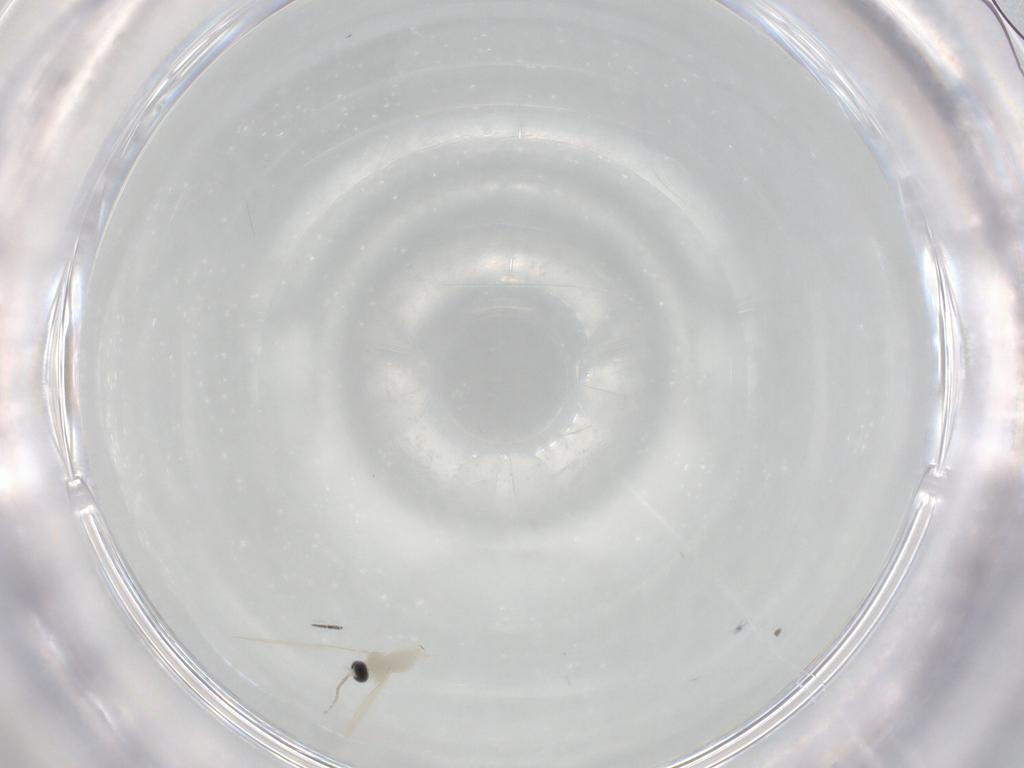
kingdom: Animalia
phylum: Arthropoda
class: Insecta
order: Diptera
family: Cecidomyiidae
